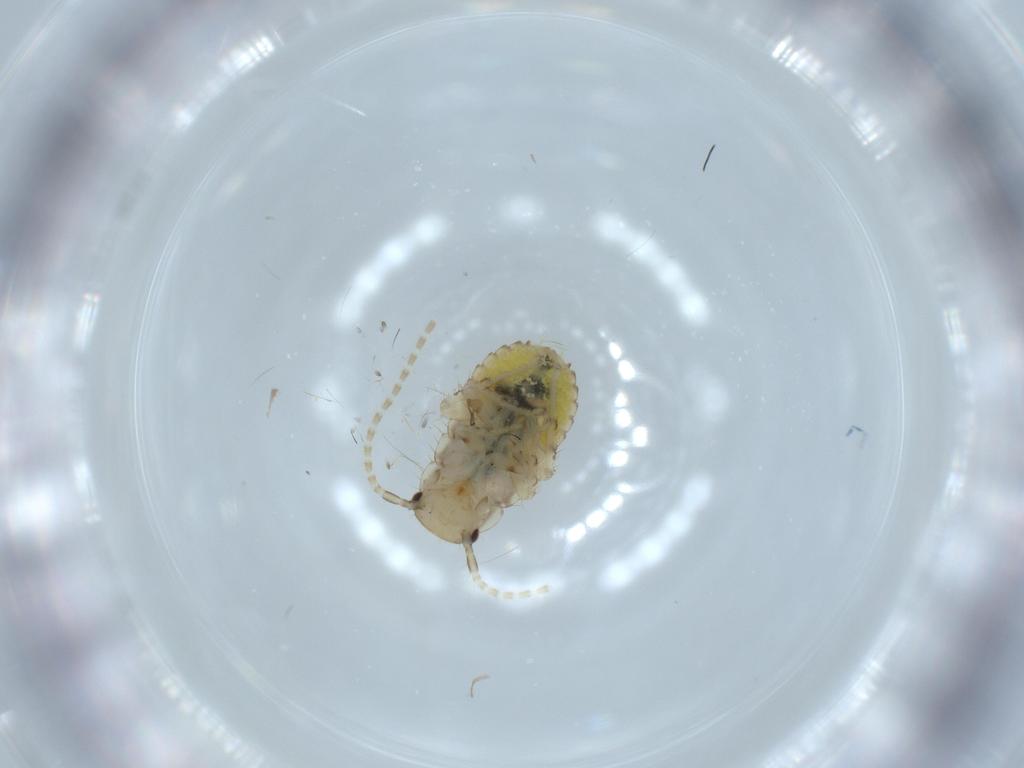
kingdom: Animalia
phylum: Arthropoda
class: Insecta
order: Blattodea
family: Ectobiidae
